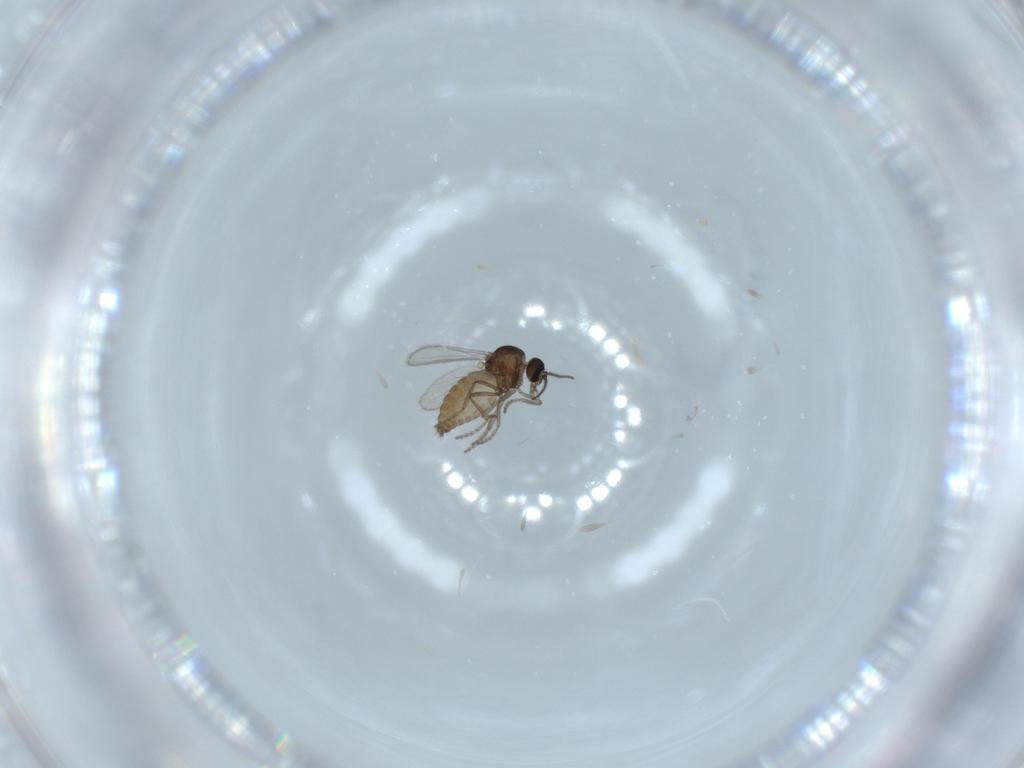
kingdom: Animalia
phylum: Arthropoda
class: Insecta
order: Diptera
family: Ceratopogonidae
